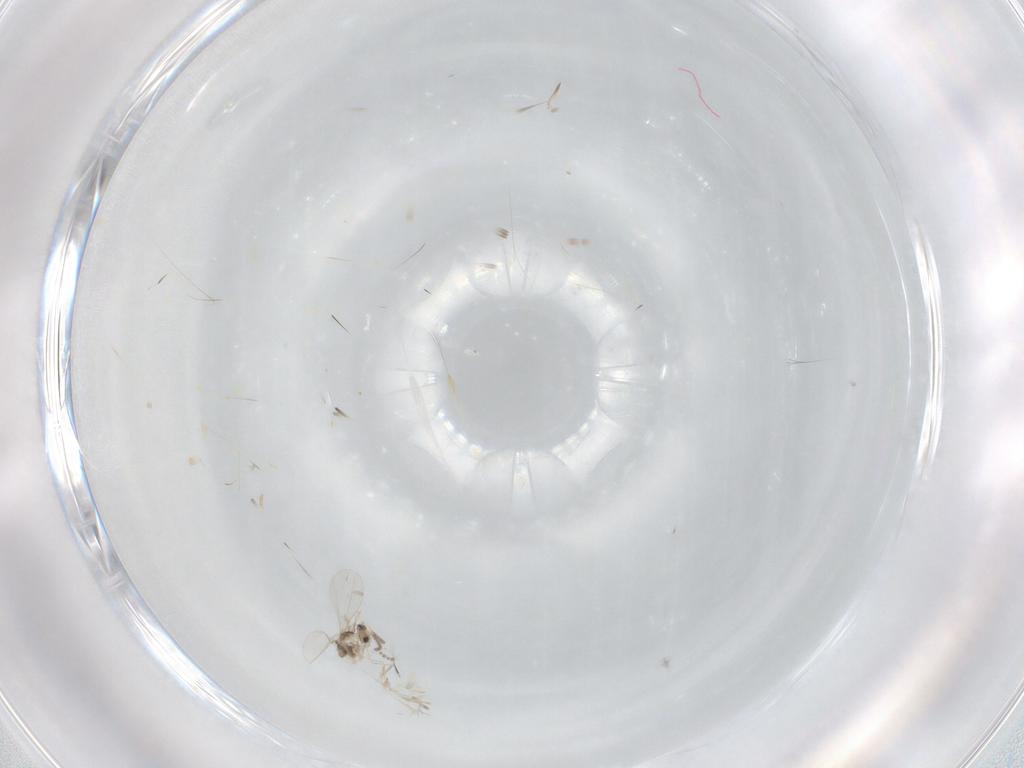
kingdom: Animalia
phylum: Arthropoda
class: Insecta
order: Diptera
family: Cecidomyiidae
